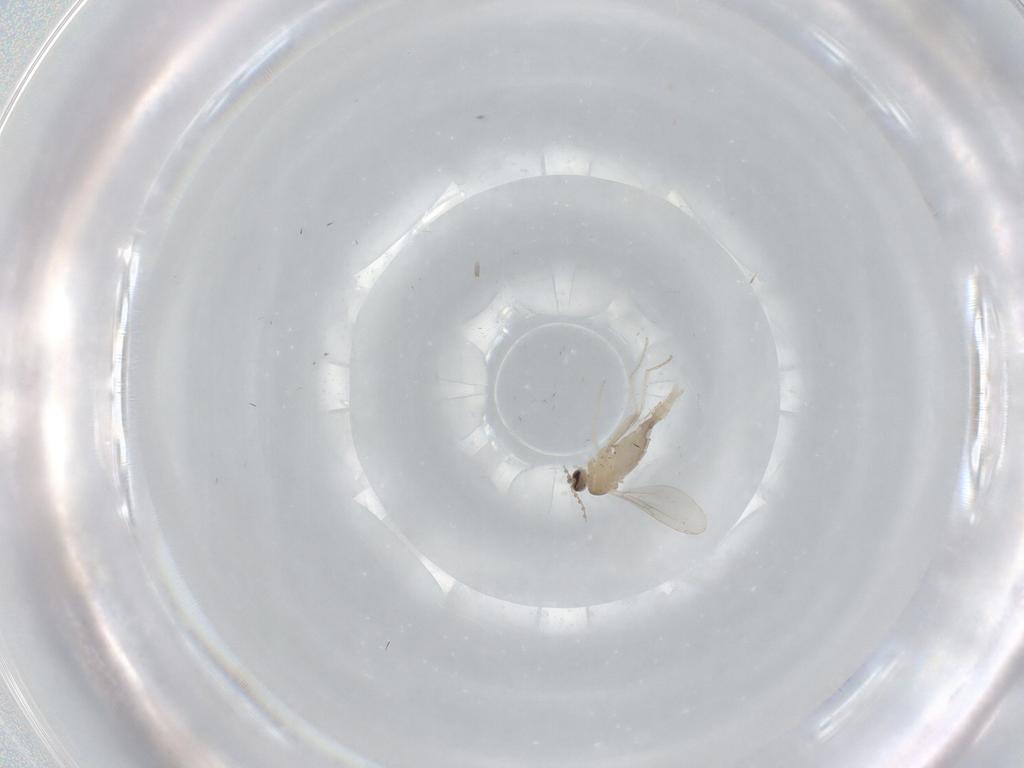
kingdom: Animalia
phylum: Arthropoda
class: Insecta
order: Diptera
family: Cecidomyiidae
